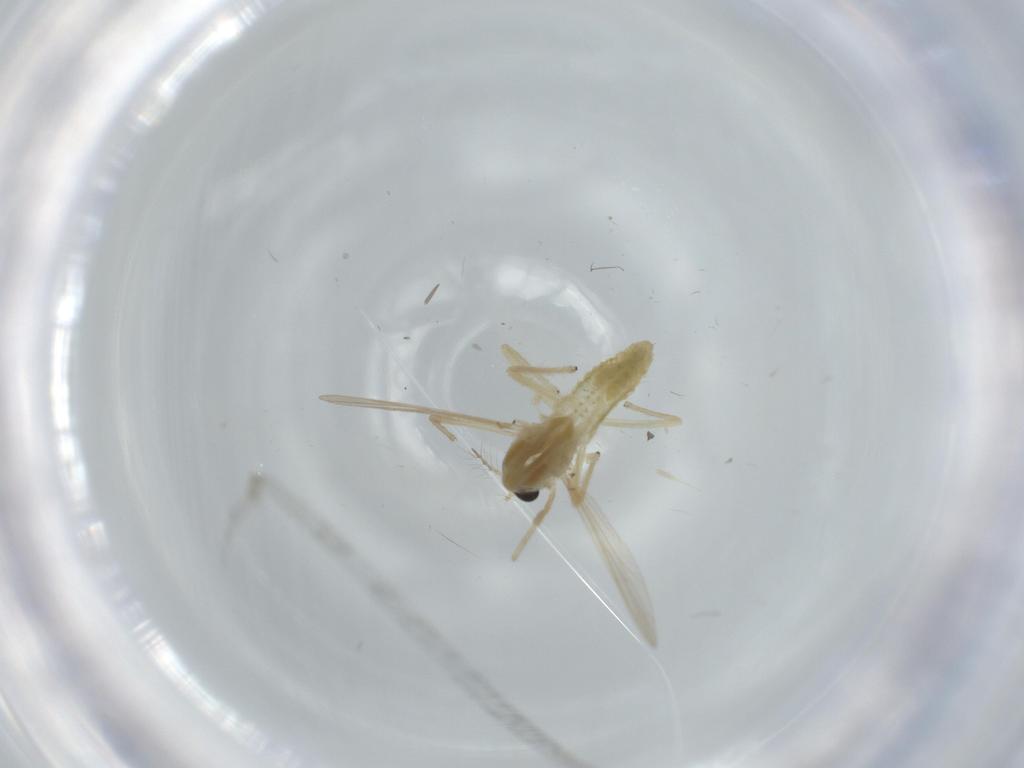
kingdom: Animalia
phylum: Arthropoda
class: Insecta
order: Diptera
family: Chironomidae
